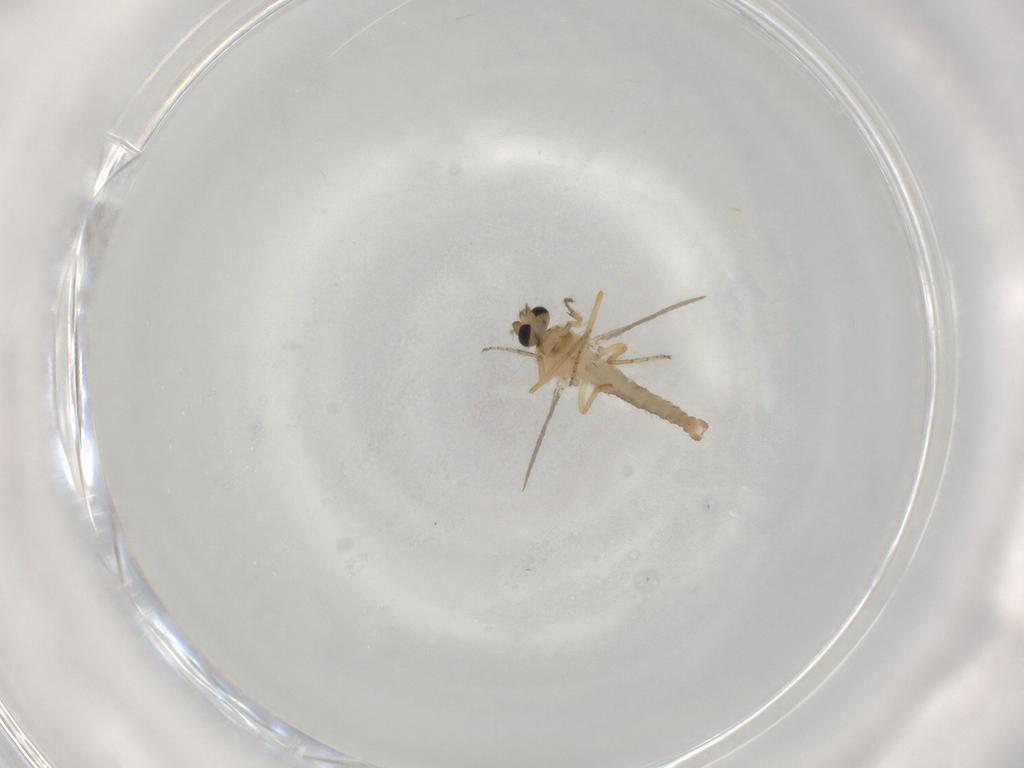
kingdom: Animalia
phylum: Arthropoda
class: Insecta
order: Diptera
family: Ceratopogonidae
